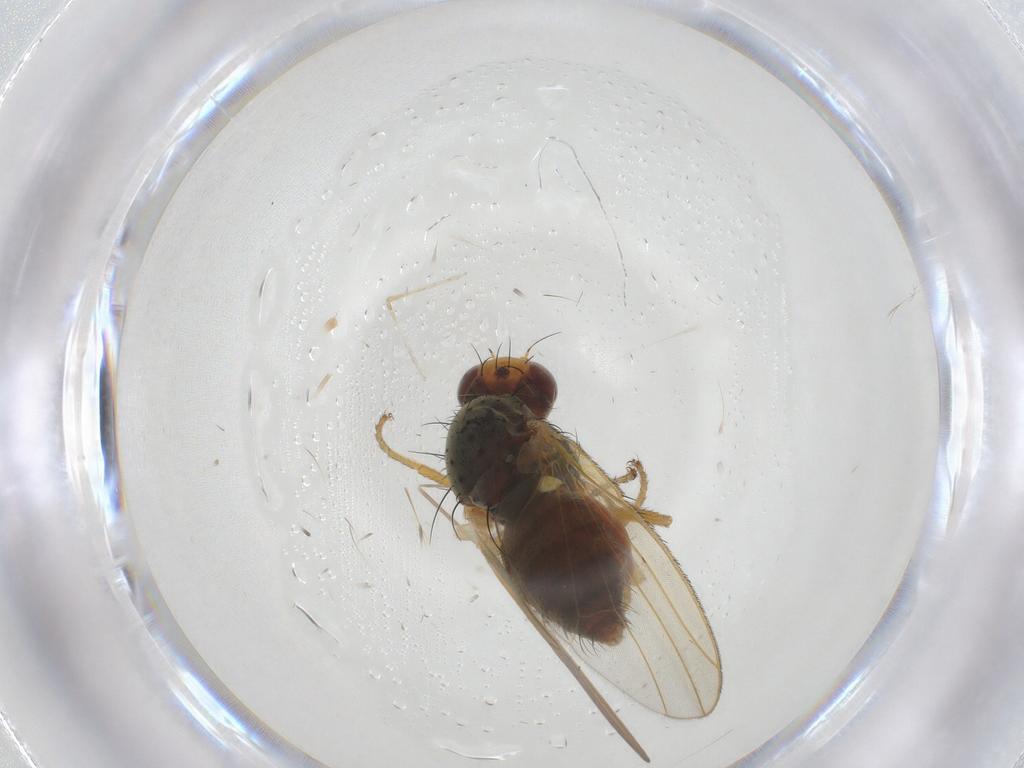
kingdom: Animalia
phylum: Arthropoda
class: Insecta
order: Diptera
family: Heleomyzidae
